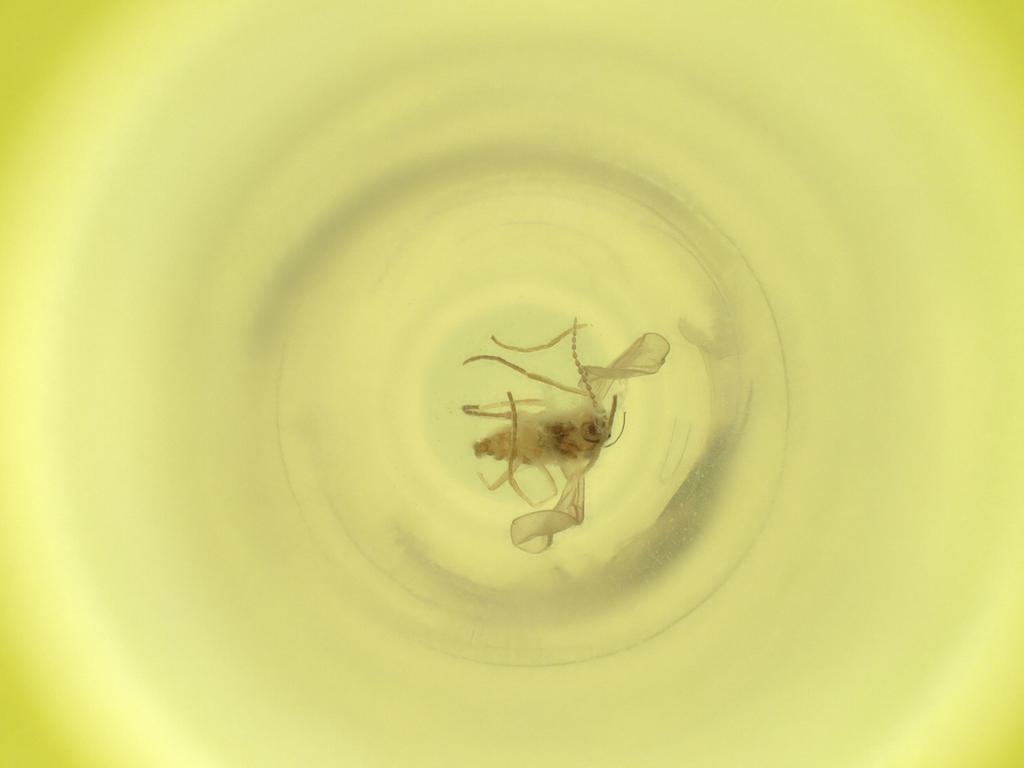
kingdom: Animalia
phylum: Arthropoda
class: Insecta
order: Diptera
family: Cecidomyiidae
